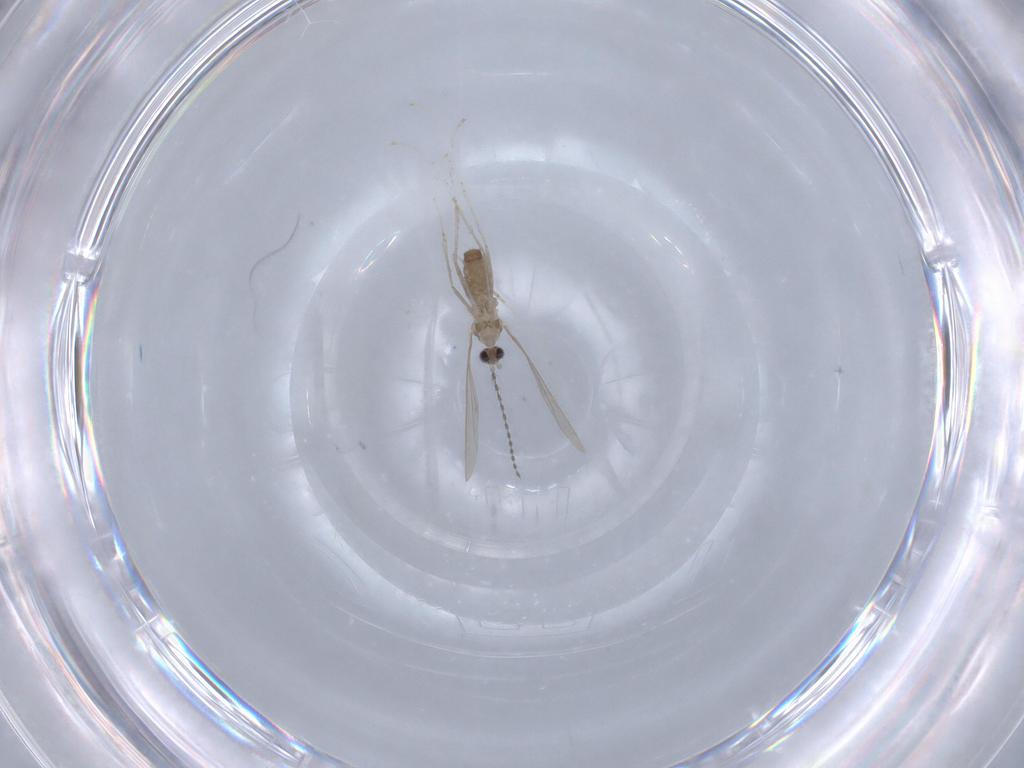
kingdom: Animalia
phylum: Arthropoda
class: Insecta
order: Diptera
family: Cecidomyiidae
